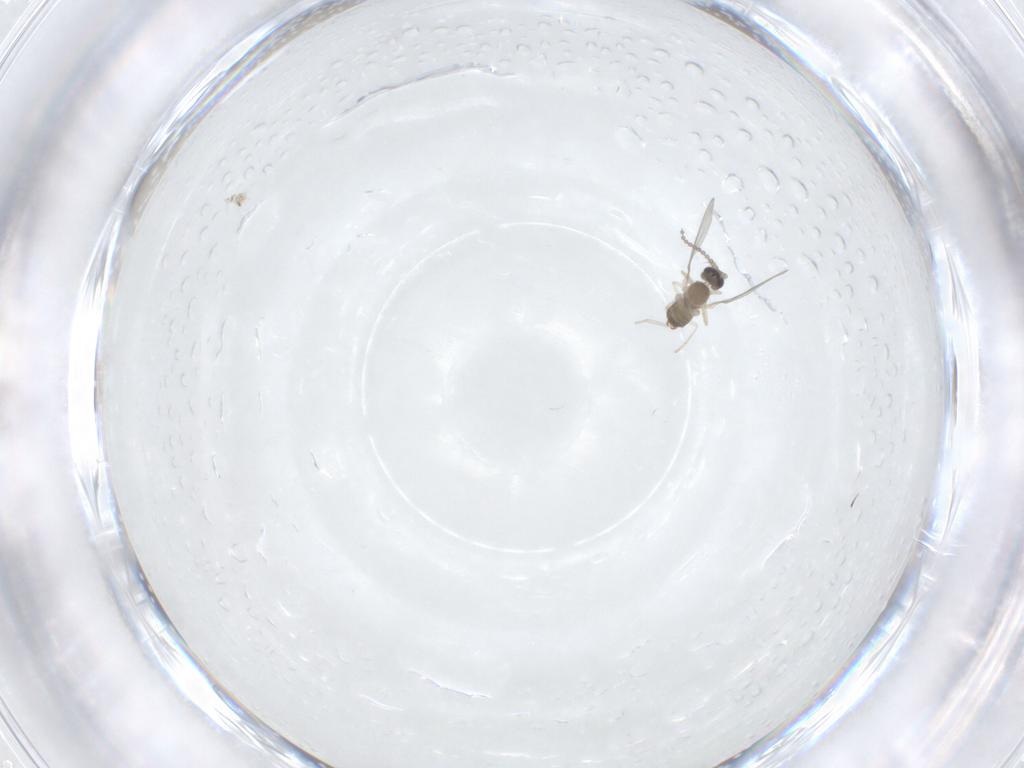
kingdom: Animalia
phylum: Arthropoda
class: Insecta
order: Diptera
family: Cecidomyiidae
